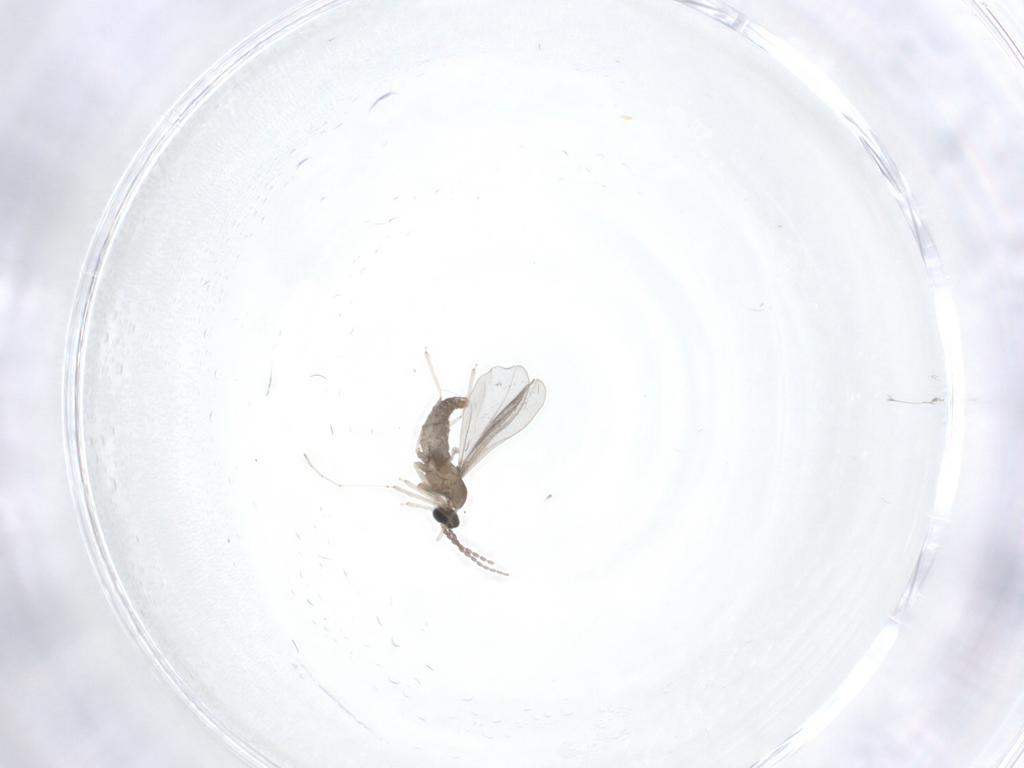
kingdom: Animalia
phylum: Arthropoda
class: Insecta
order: Diptera
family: Cecidomyiidae
